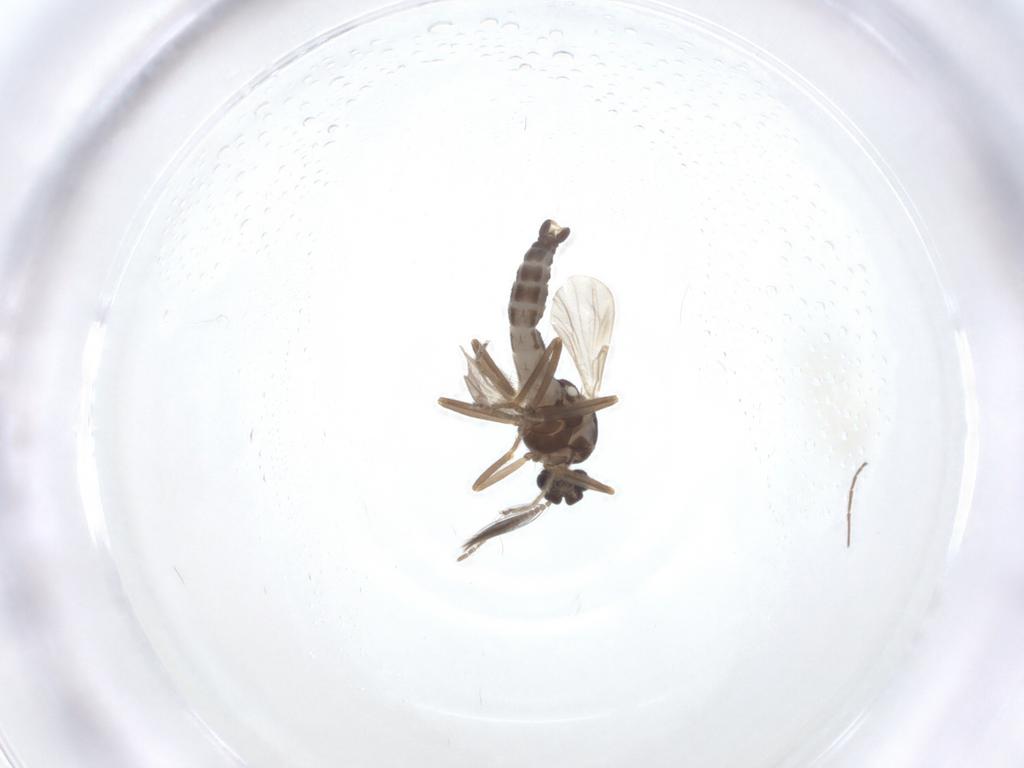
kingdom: Animalia
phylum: Arthropoda
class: Insecta
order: Diptera
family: Ceratopogonidae
